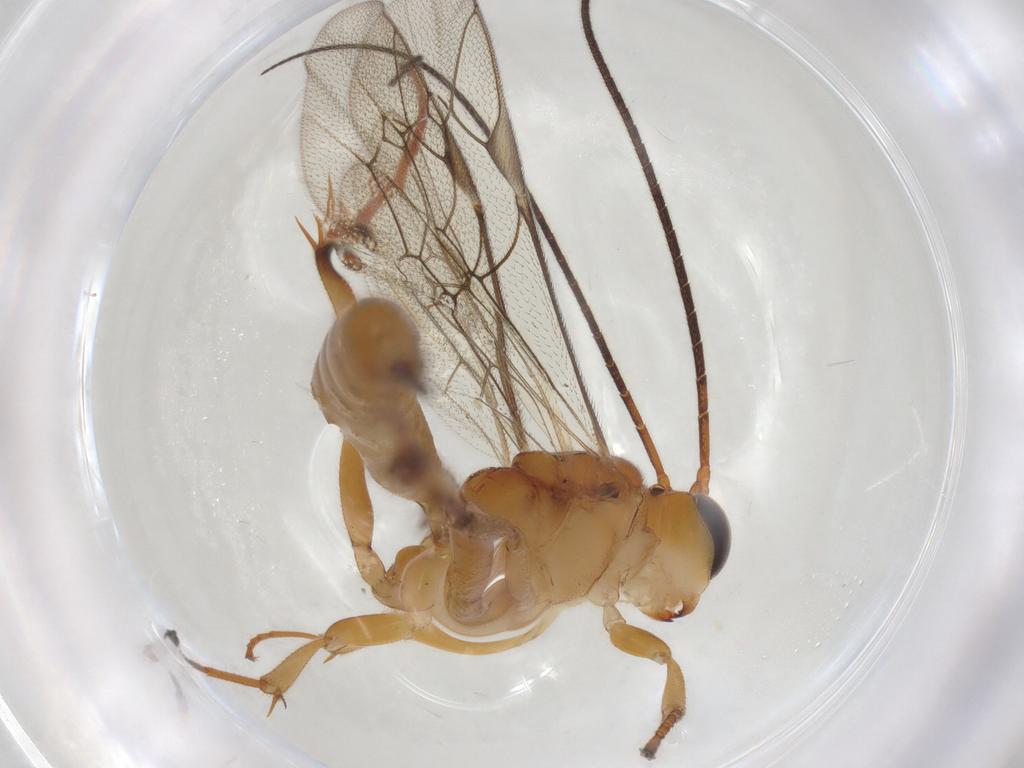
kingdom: Animalia
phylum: Arthropoda
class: Insecta
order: Hymenoptera
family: Ichneumonidae
